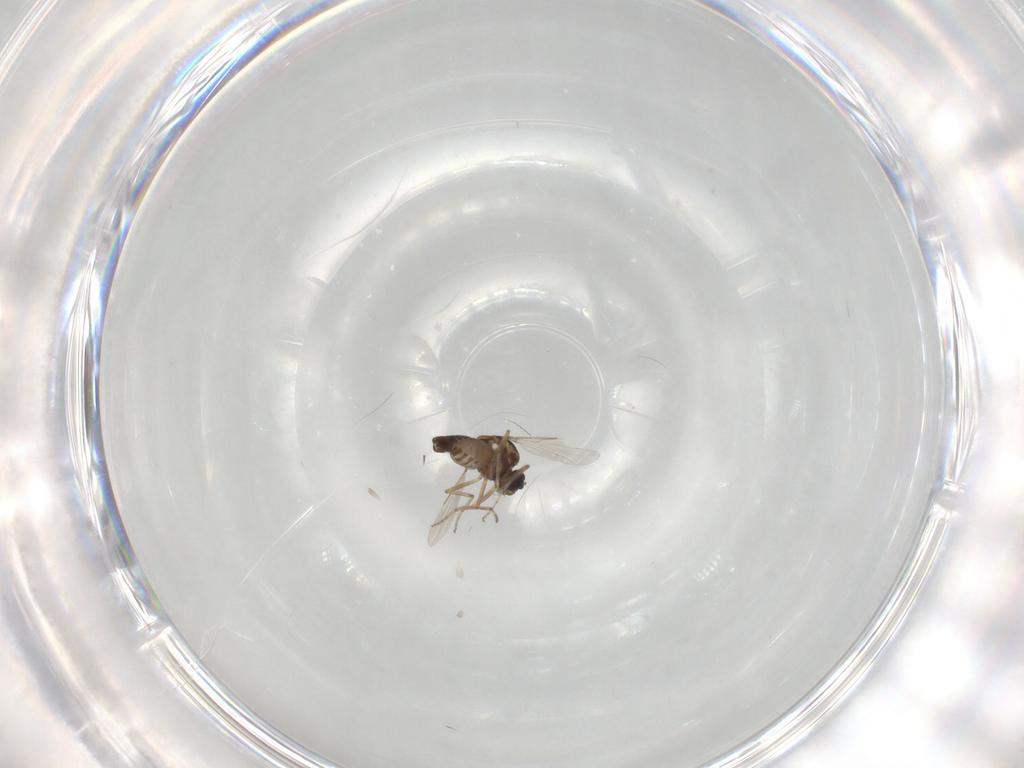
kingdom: Animalia
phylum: Arthropoda
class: Insecta
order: Diptera
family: Ceratopogonidae
